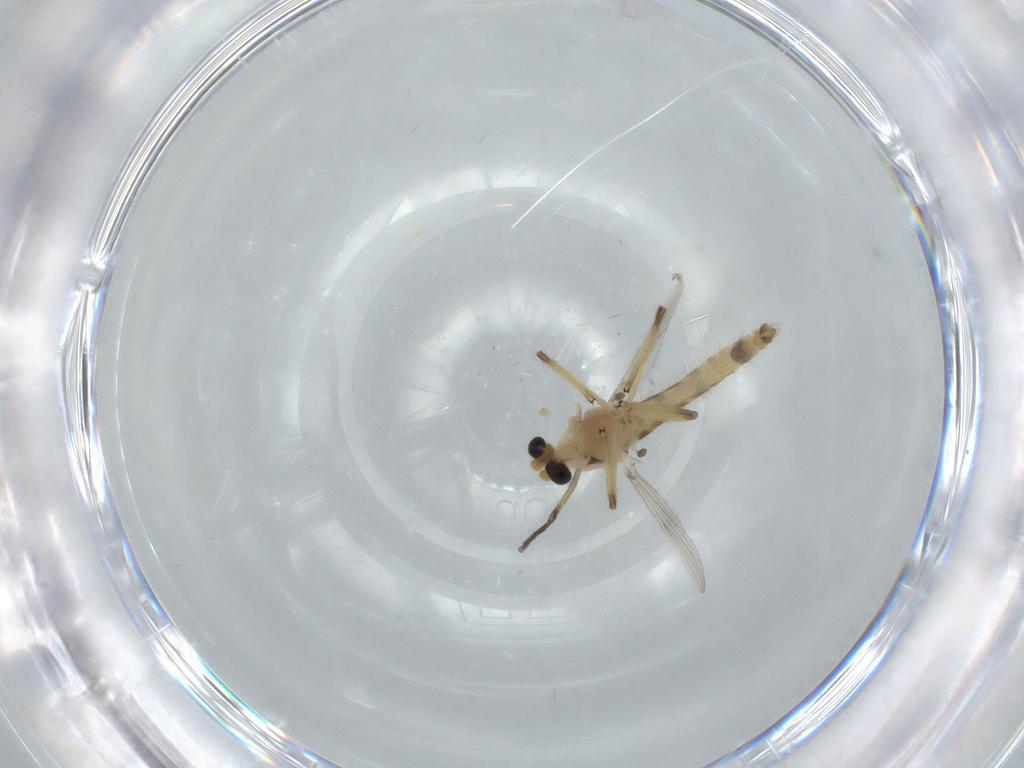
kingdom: Animalia
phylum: Arthropoda
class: Insecta
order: Diptera
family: Chironomidae
